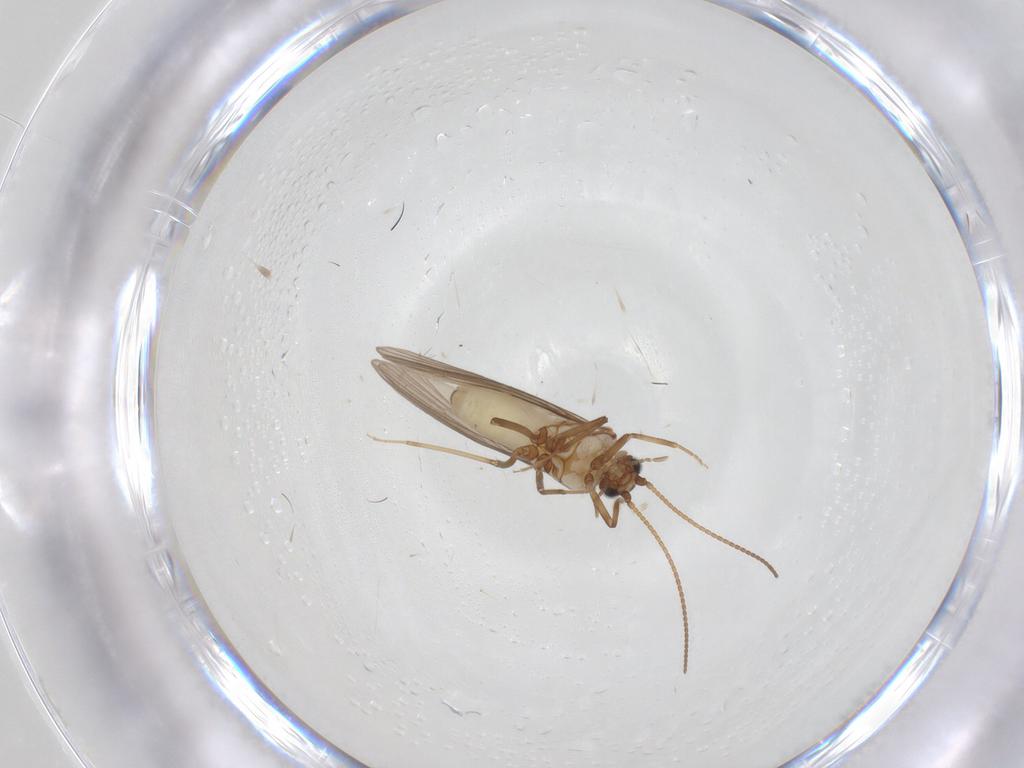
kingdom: Animalia
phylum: Arthropoda
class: Insecta
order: Neuroptera
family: Coniopterygidae
